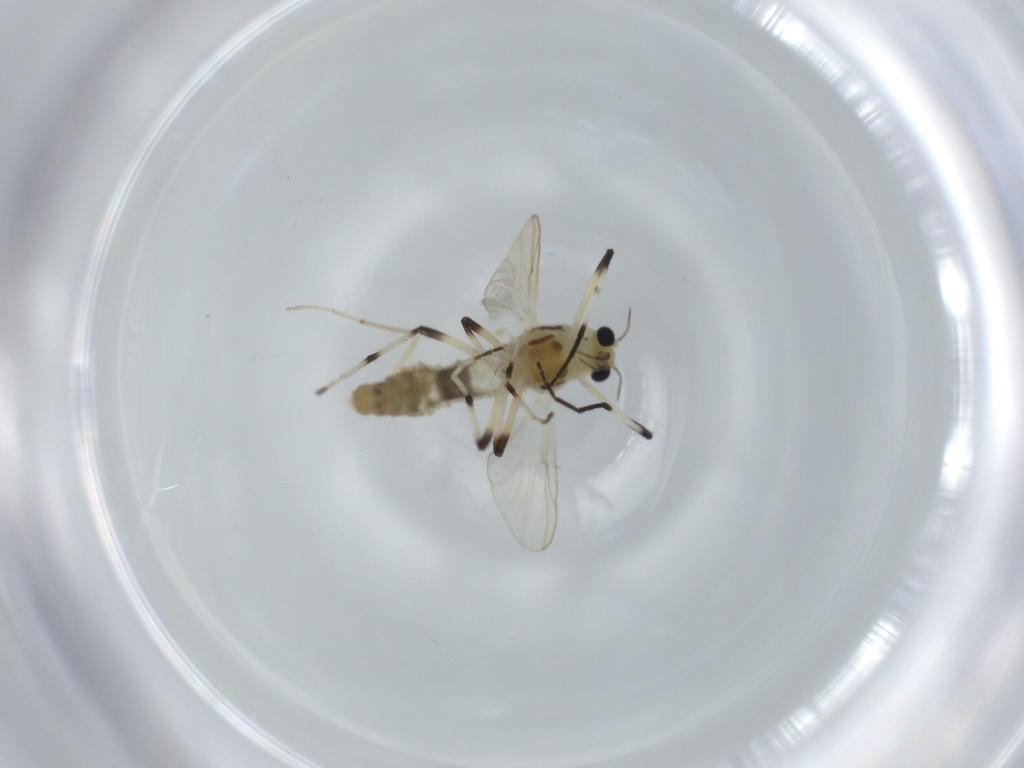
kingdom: Animalia
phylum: Arthropoda
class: Insecta
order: Diptera
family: Chironomidae
